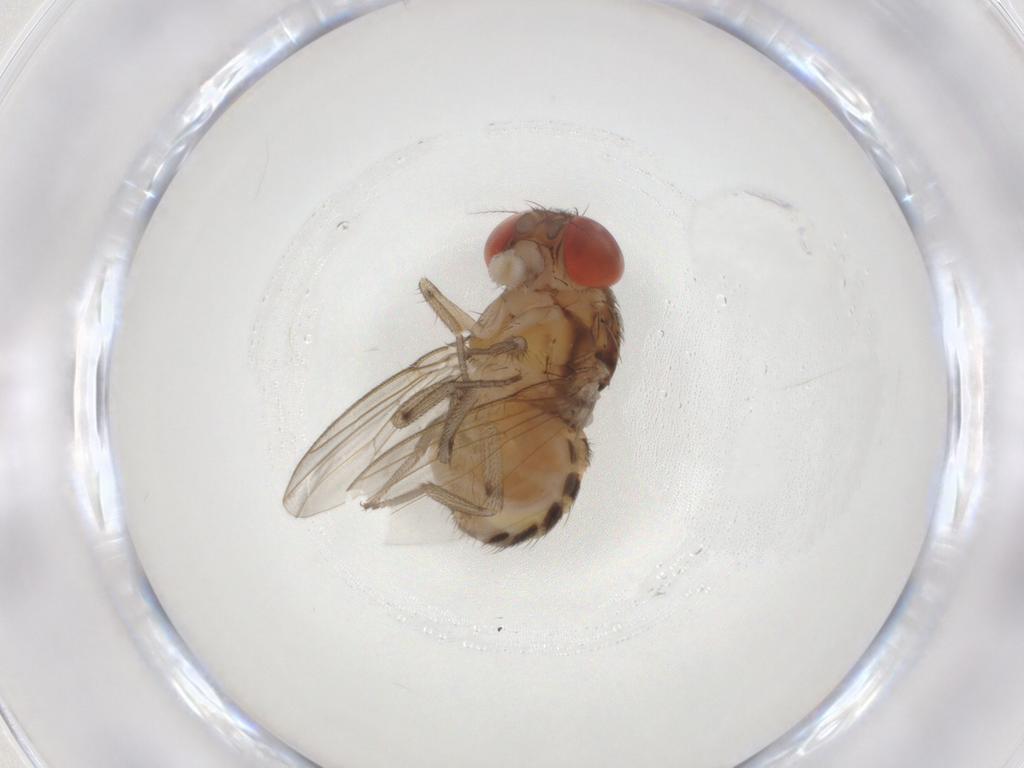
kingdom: Animalia
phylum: Arthropoda
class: Insecta
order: Diptera
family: Drosophilidae
